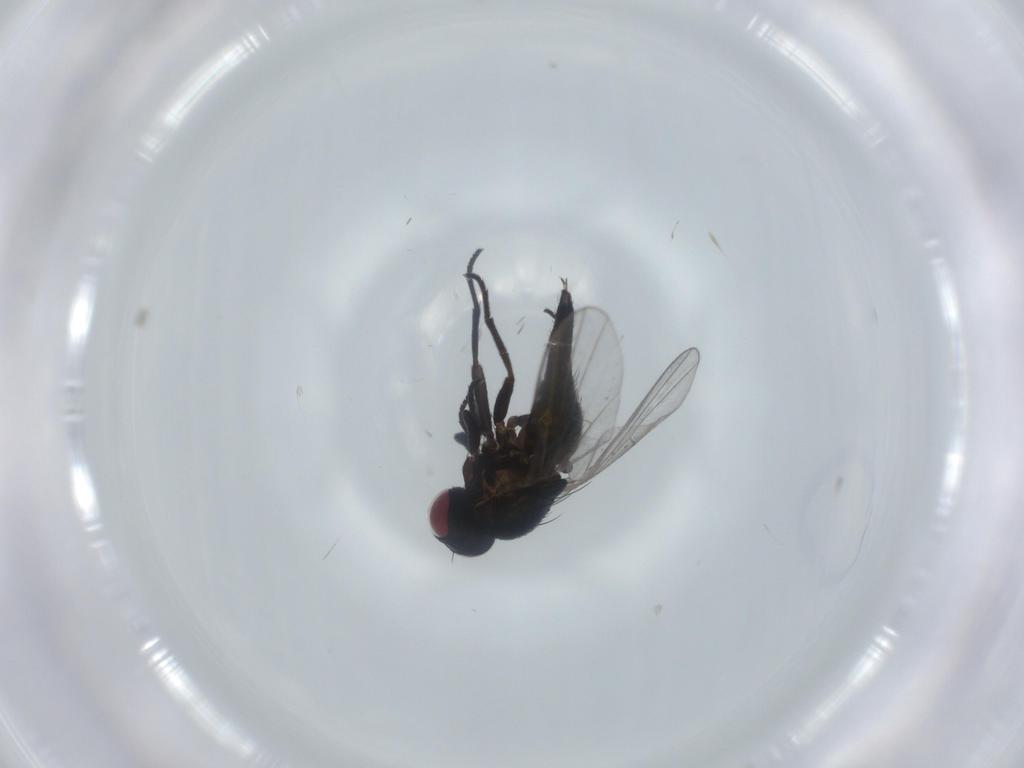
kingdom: Animalia
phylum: Arthropoda
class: Insecta
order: Diptera
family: Agromyzidae
